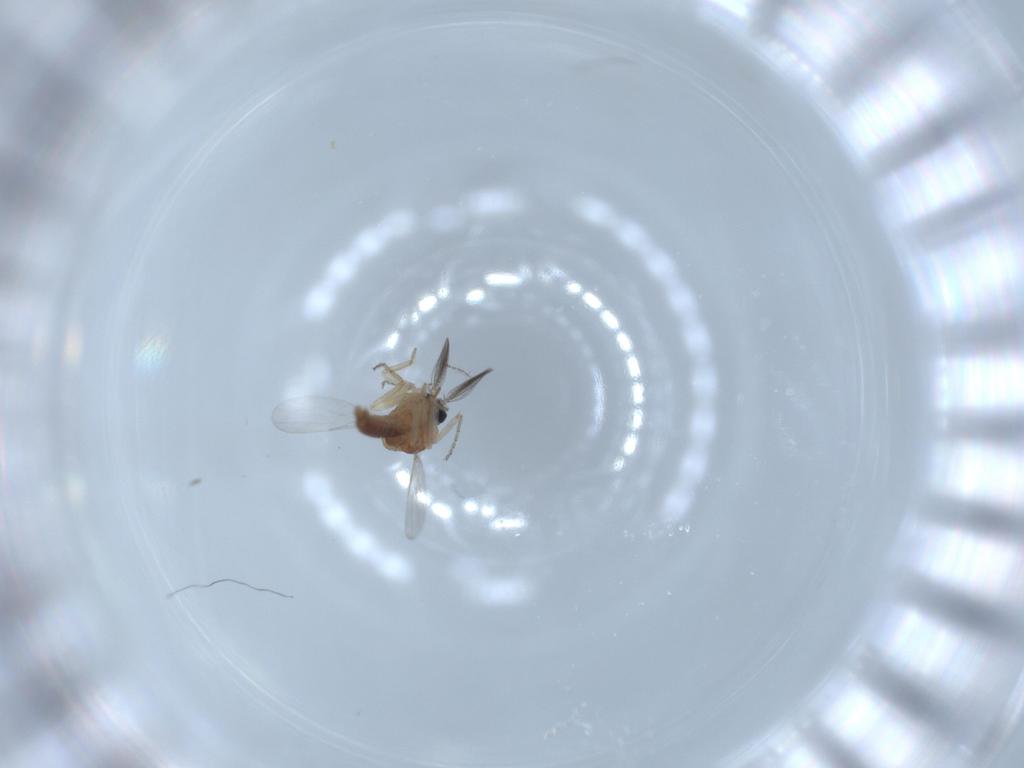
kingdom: Animalia
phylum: Arthropoda
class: Insecta
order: Diptera
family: Ceratopogonidae
